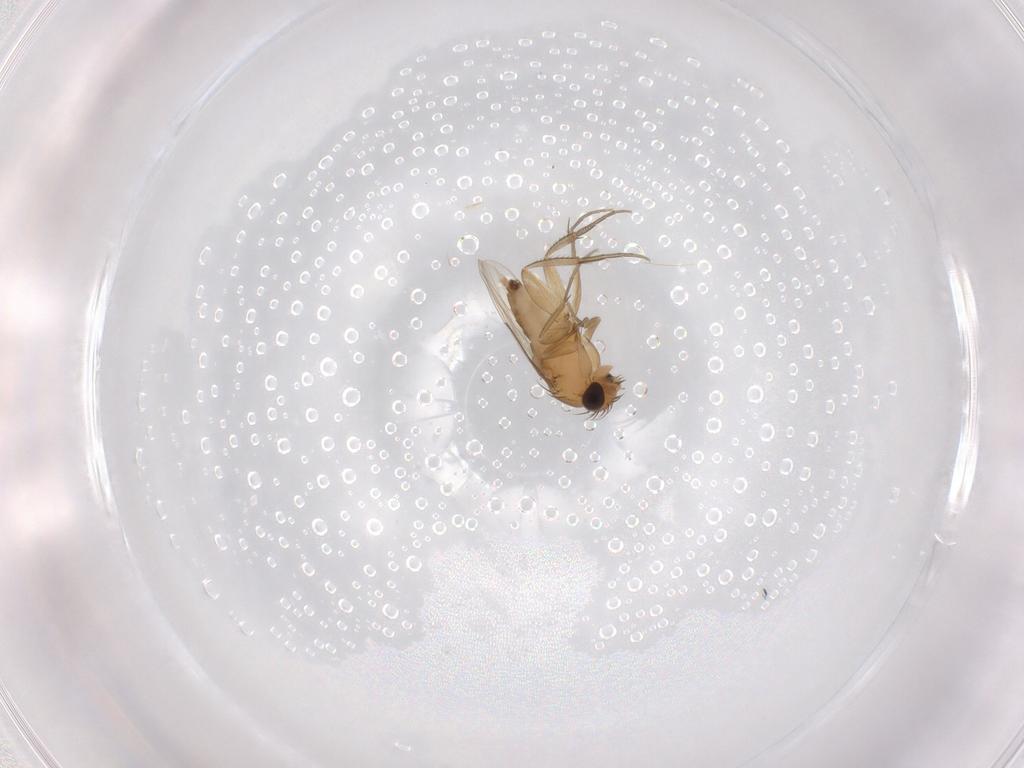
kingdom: Animalia
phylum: Arthropoda
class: Insecta
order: Diptera
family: Phoridae
